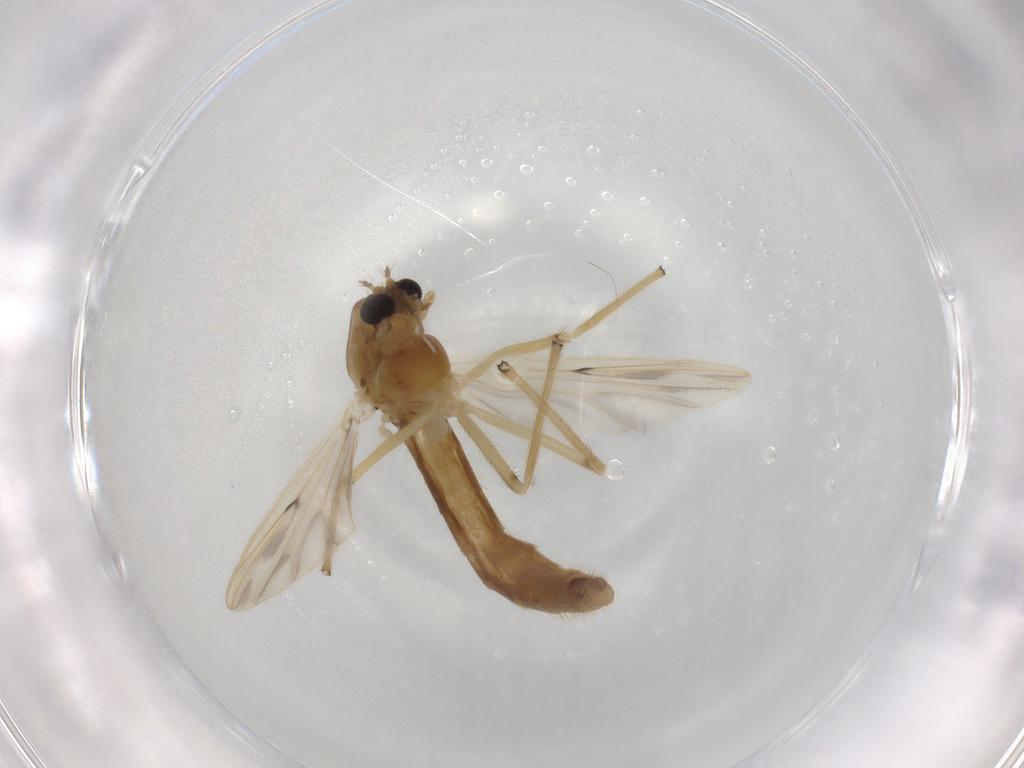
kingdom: Animalia
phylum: Arthropoda
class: Insecta
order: Diptera
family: Chironomidae
